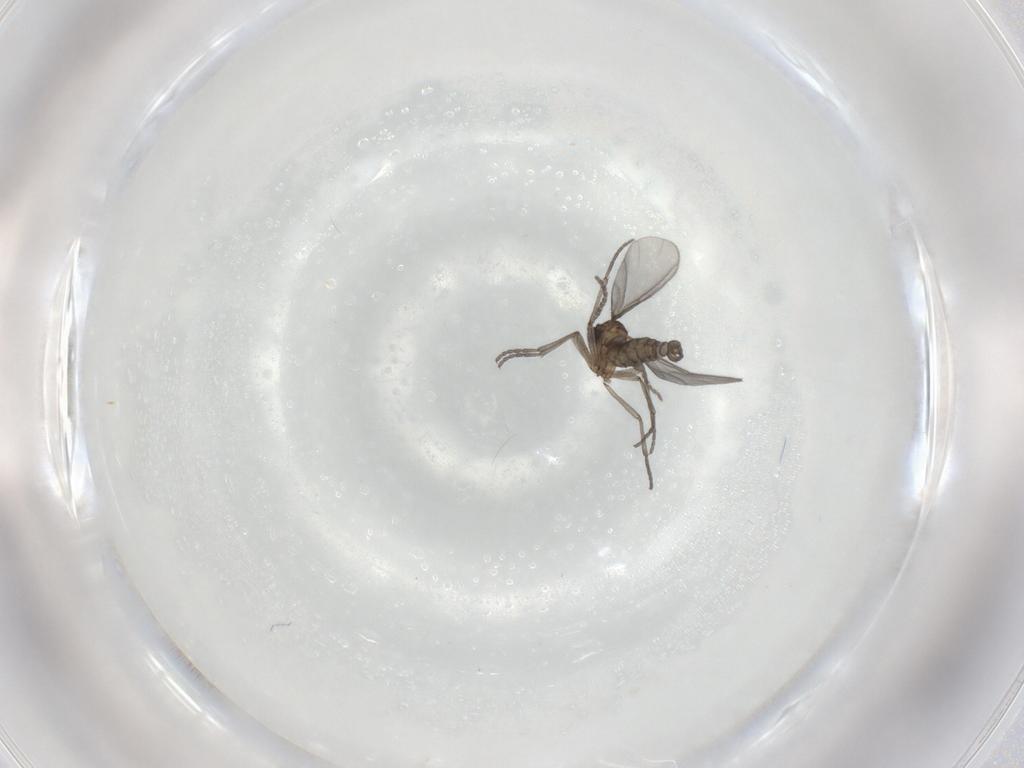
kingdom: Animalia
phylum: Arthropoda
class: Insecta
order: Diptera
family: Sciaridae
